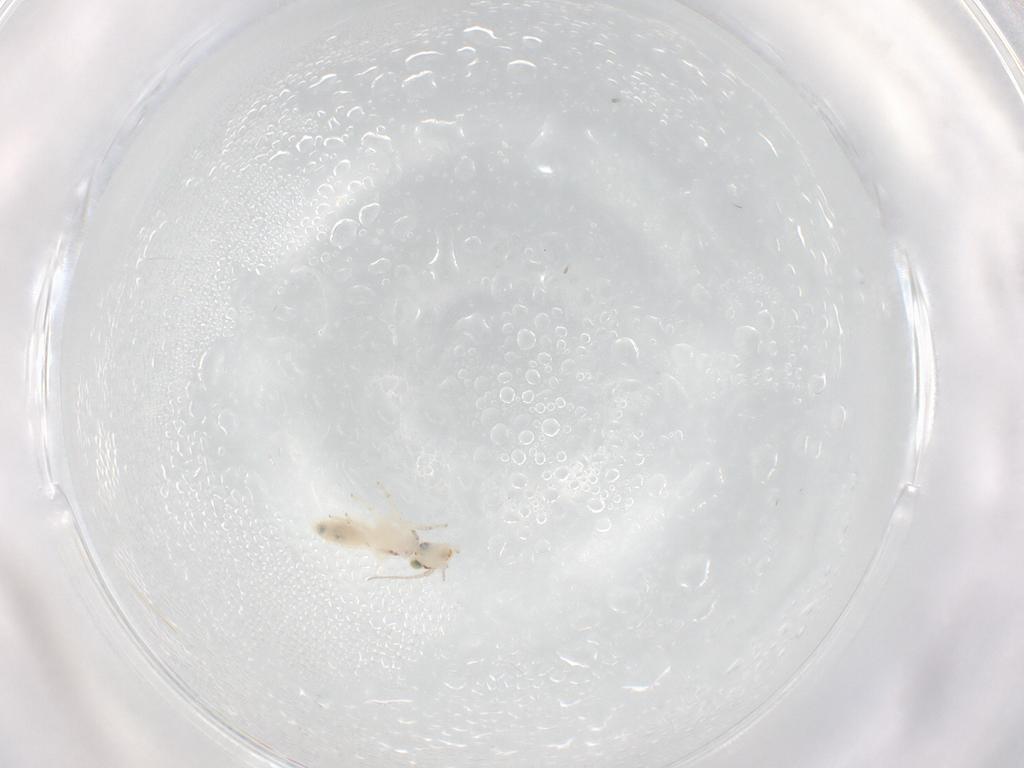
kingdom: Animalia
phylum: Arthropoda
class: Insecta
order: Psocodea
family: Lepidopsocidae
